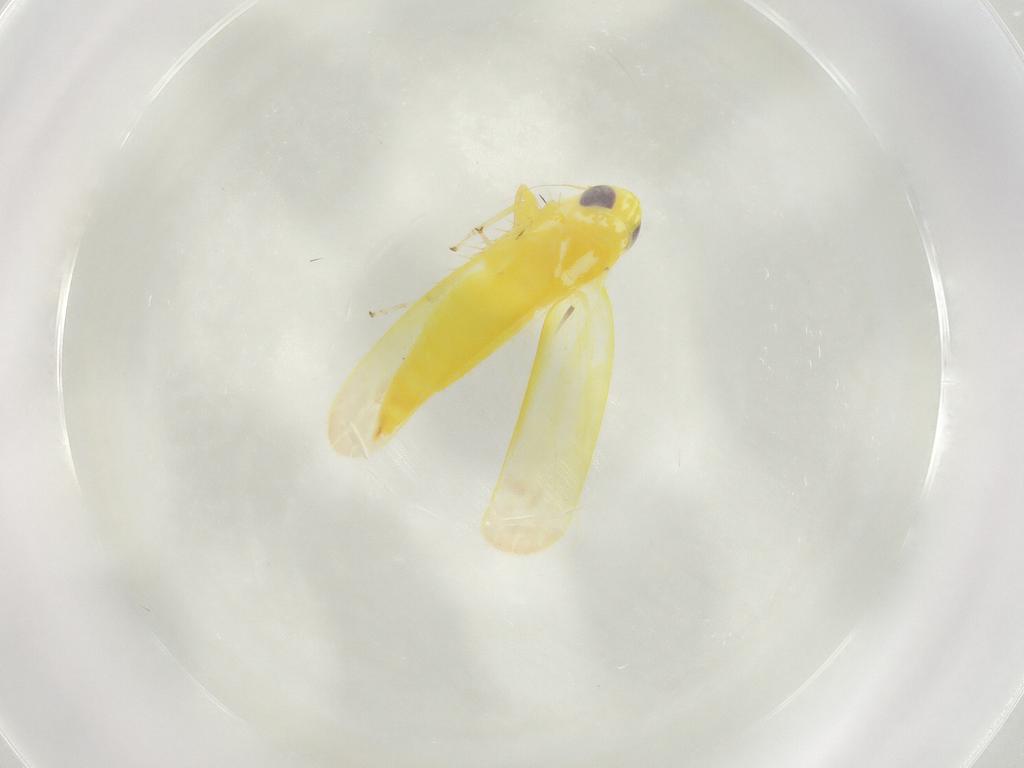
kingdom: Animalia
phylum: Arthropoda
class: Insecta
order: Hemiptera
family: Cicadellidae
